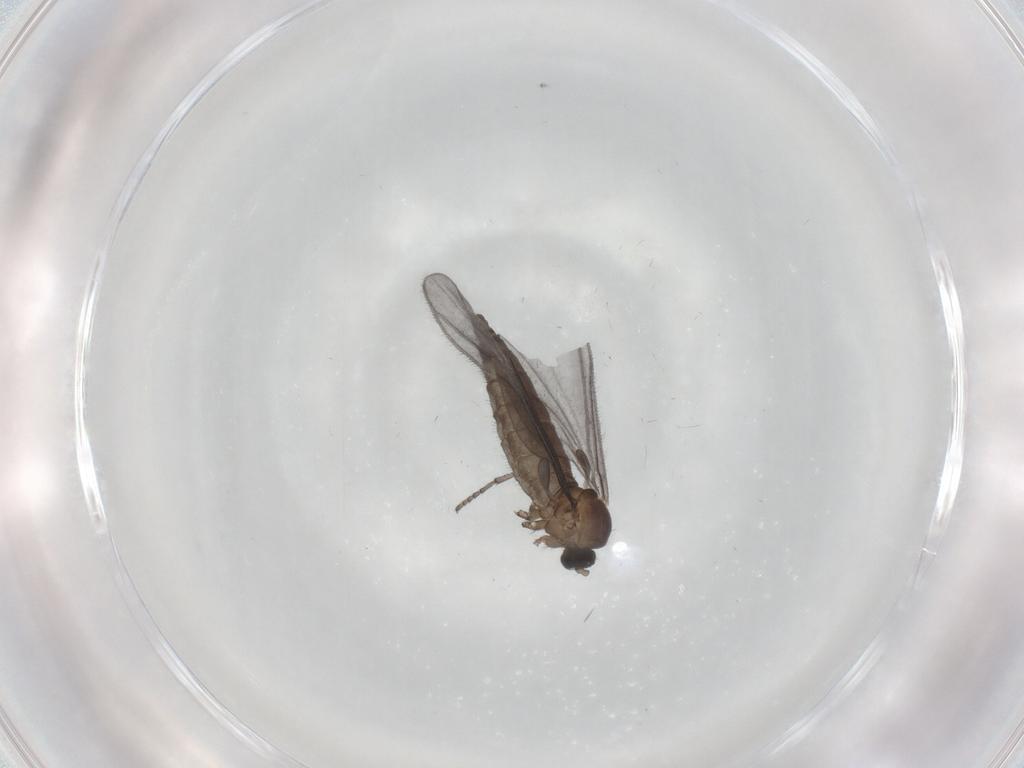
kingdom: Animalia
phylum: Arthropoda
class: Insecta
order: Diptera
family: Sciaridae
